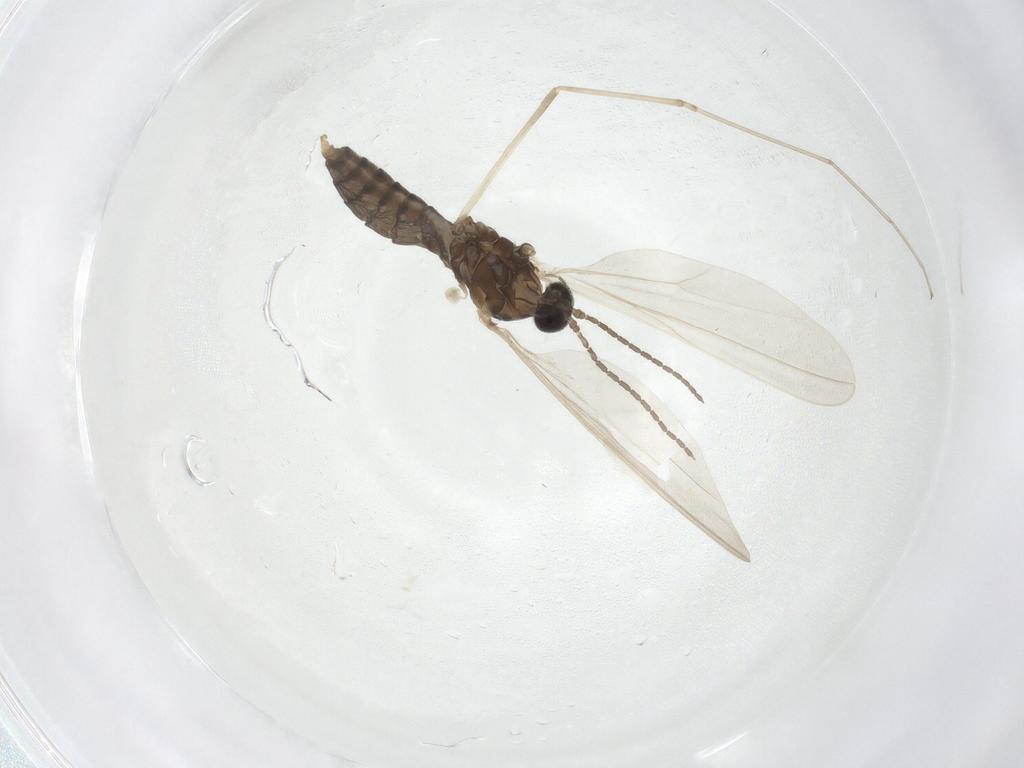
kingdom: Animalia
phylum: Arthropoda
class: Insecta
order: Diptera
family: Cecidomyiidae
